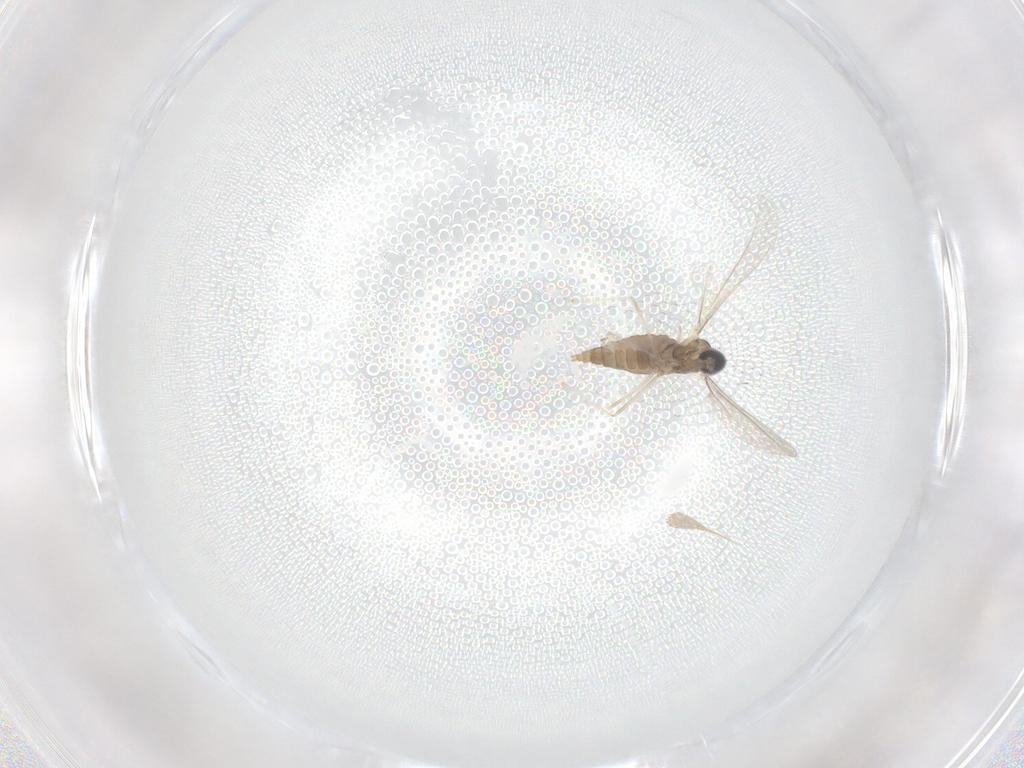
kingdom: Animalia
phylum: Arthropoda
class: Insecta
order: Diptera
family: Cecidomyiidae
